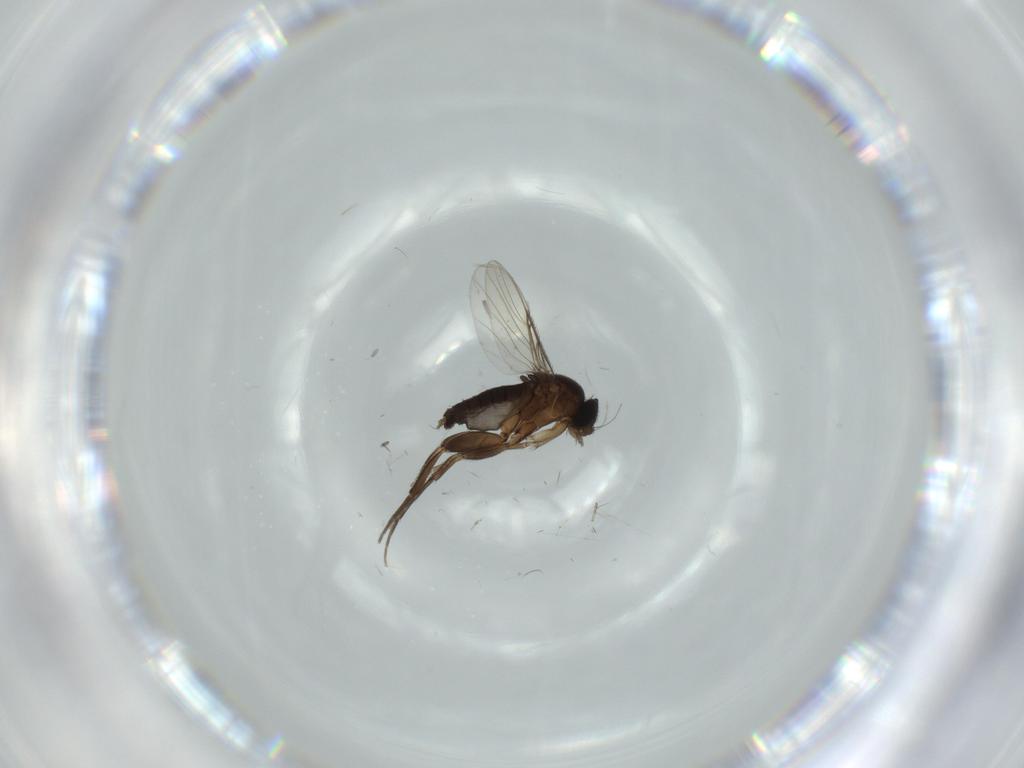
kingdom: Animalia
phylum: Arthropoda
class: Insecta
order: Diptera
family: Phoridae
